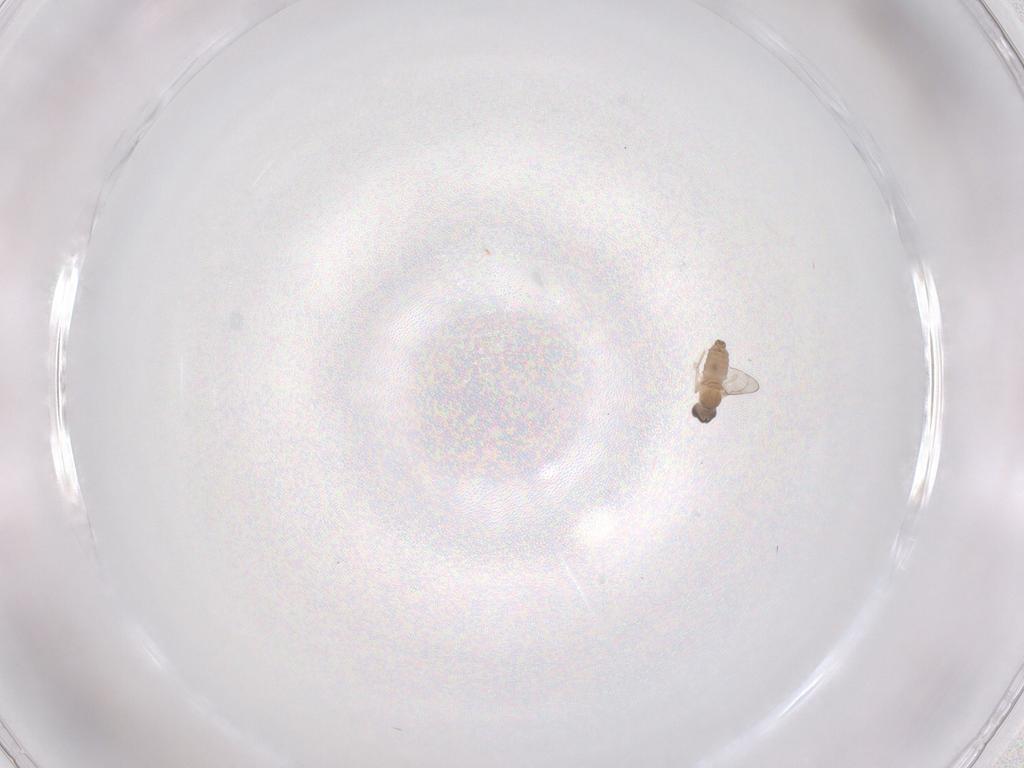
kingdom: Animalia
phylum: Arthropoda
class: Insecta
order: Diptera
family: Cecidomyiidae
